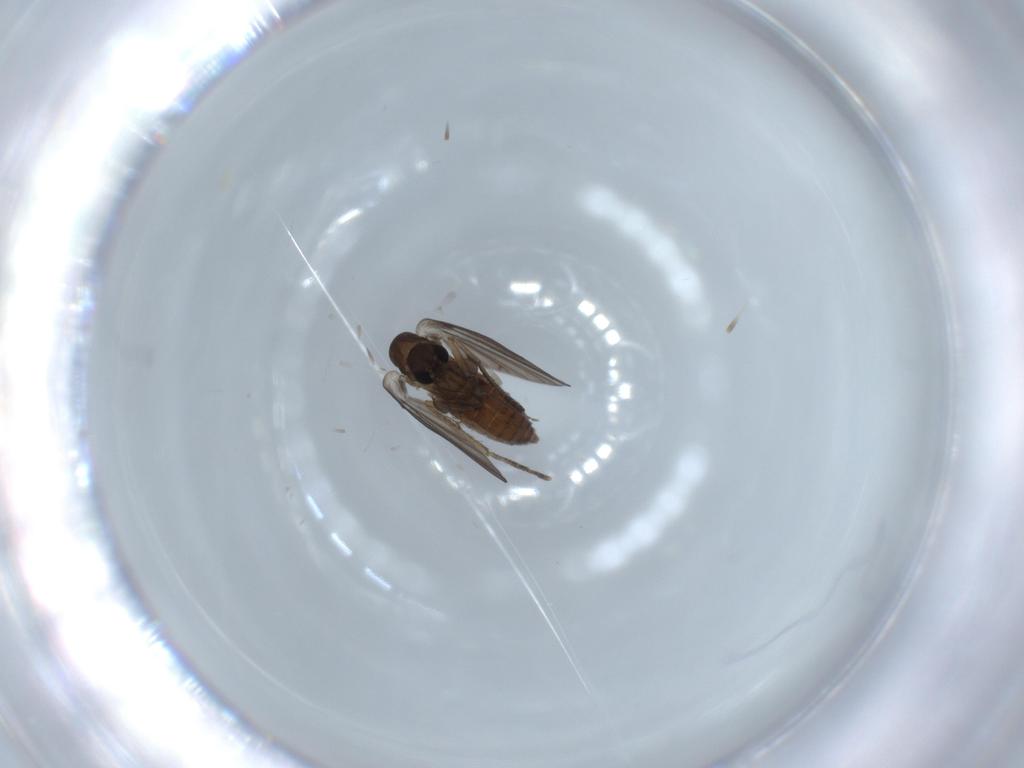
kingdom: Animalia
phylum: Arthropoda
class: Insecta
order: Diptera
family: Psychodidae
